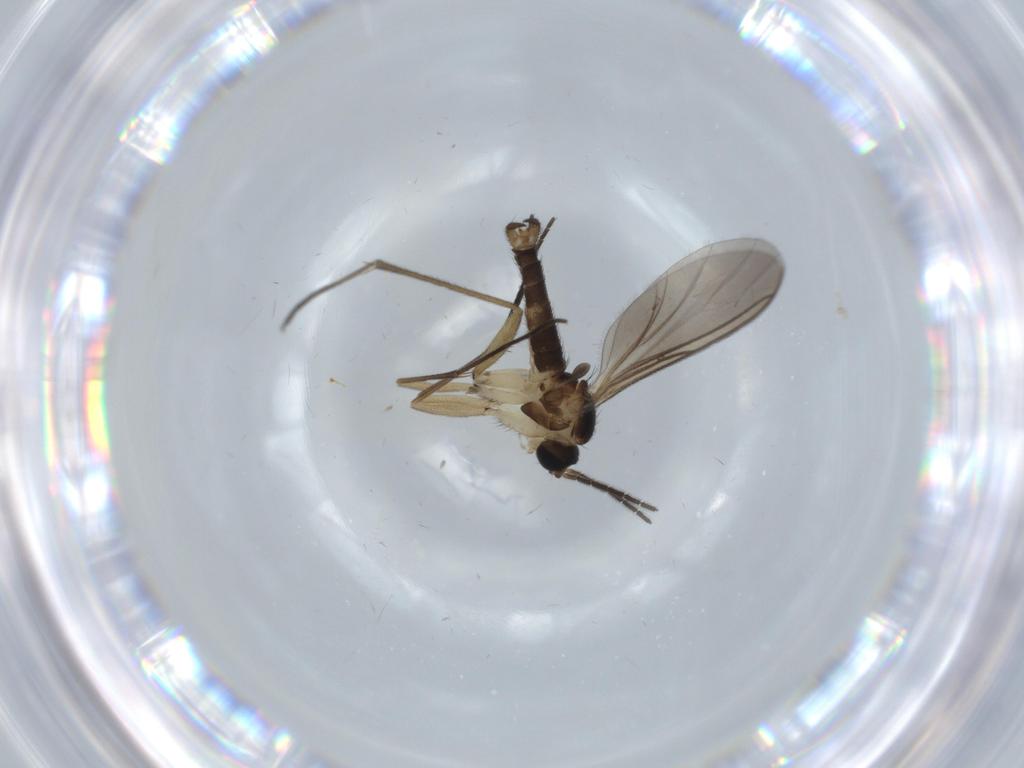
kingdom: Animalia
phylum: Arthropoda
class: Insecta
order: Diptera
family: Sciaridae
